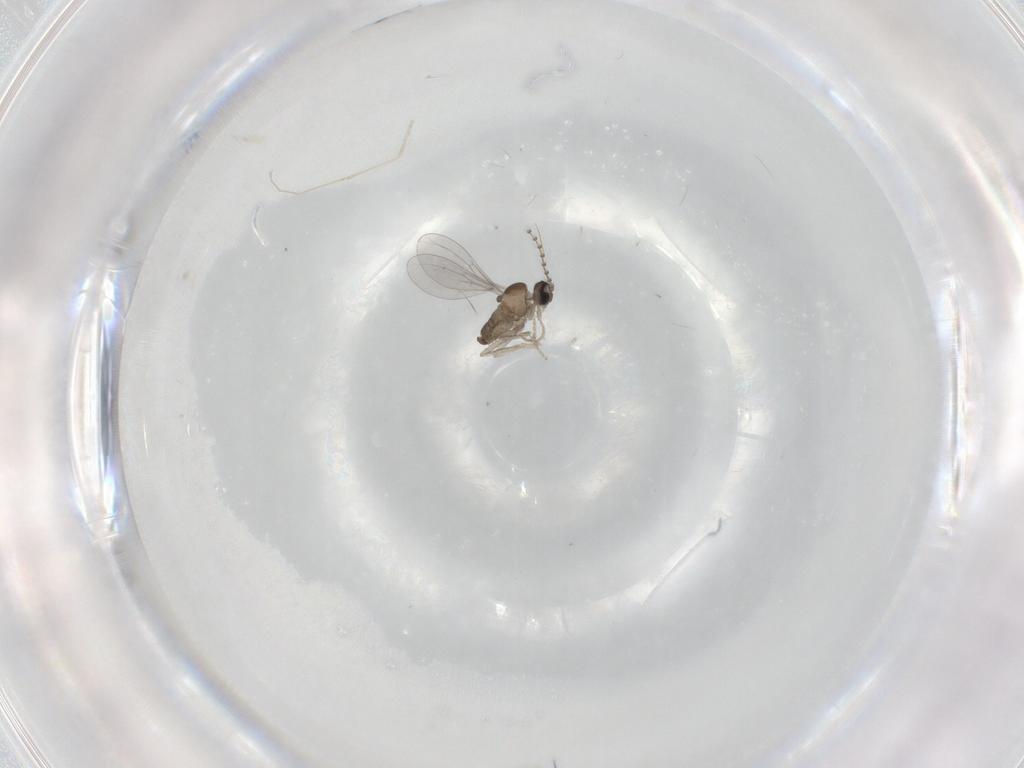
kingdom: Animalia
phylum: Arthropoda
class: Insecta
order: Diptera
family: Cecidomyiidae
